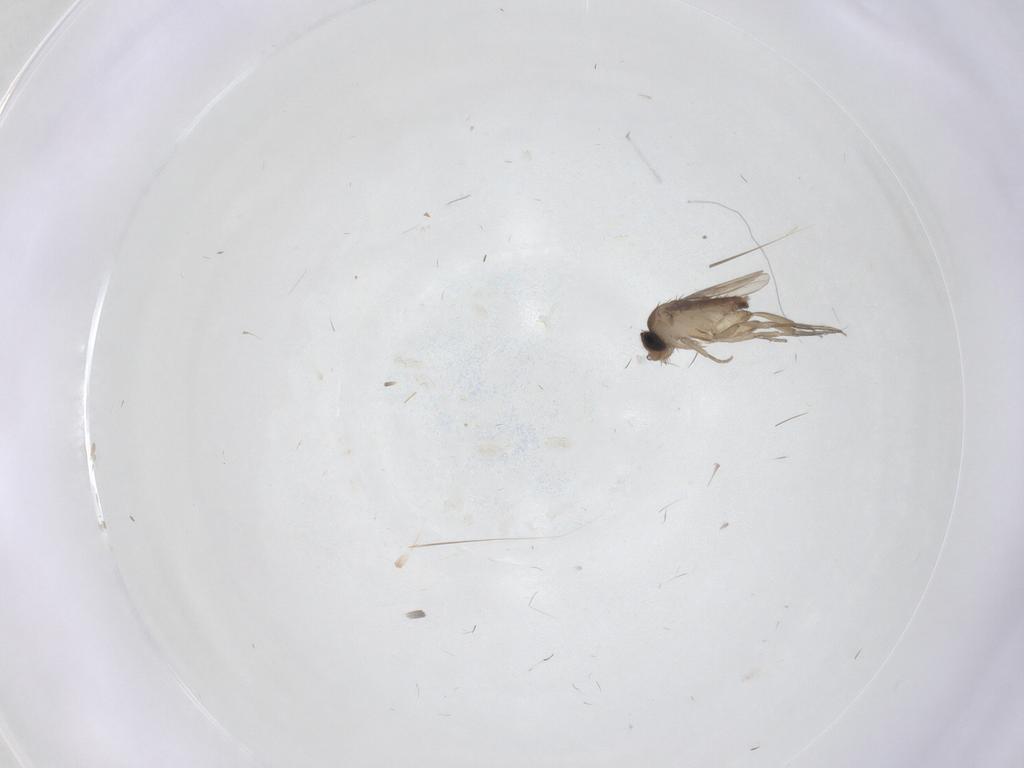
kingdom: Animalia
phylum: Arthropoda
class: Insecta
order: Diptera
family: Phoridae
